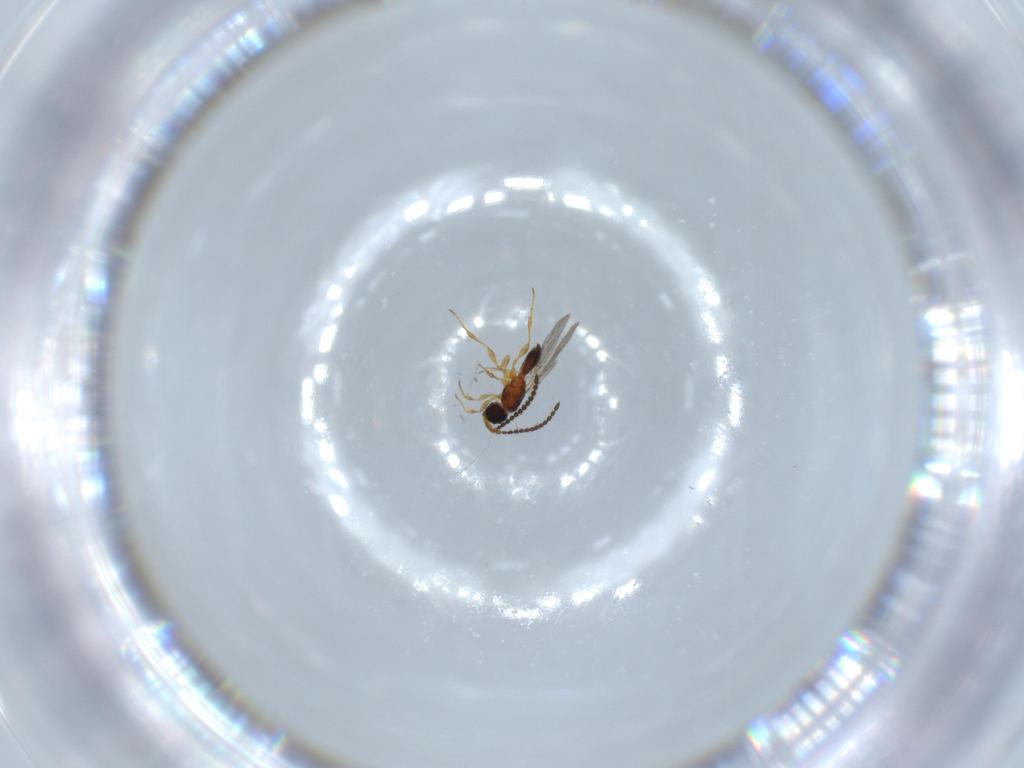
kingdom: Animalia
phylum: Arthropoda
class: Insecta
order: Hymenoptera
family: Diapriidae
